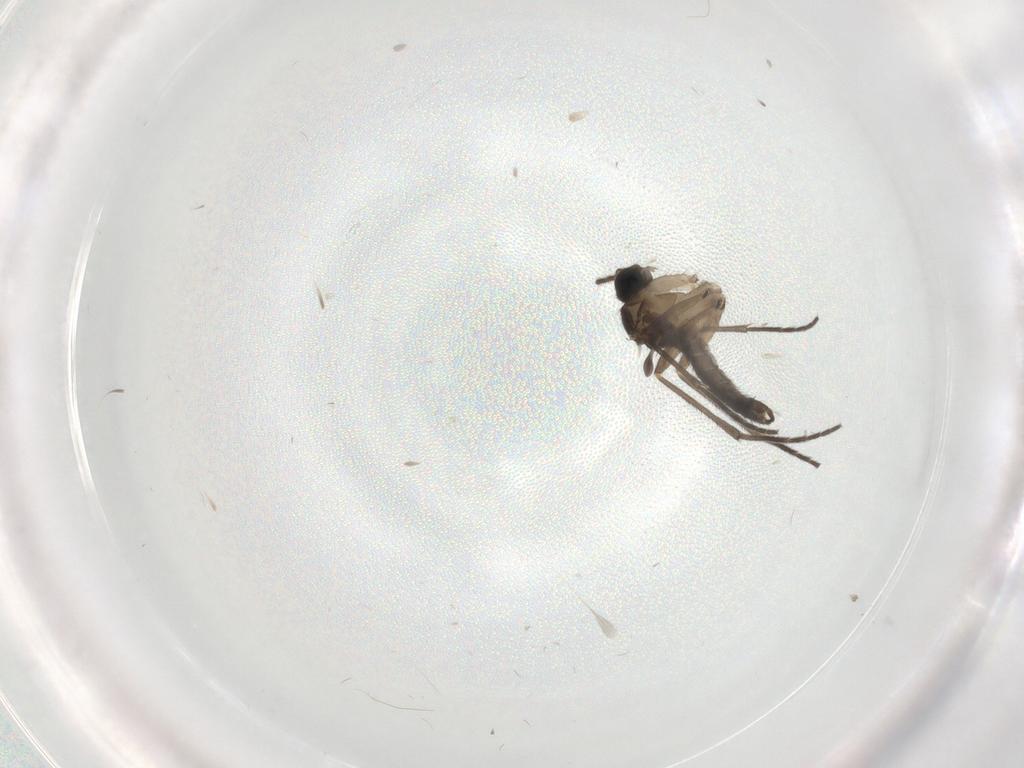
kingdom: Animalia
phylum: Arthropoda
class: Insecta
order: Diptera
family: Sciaridae
